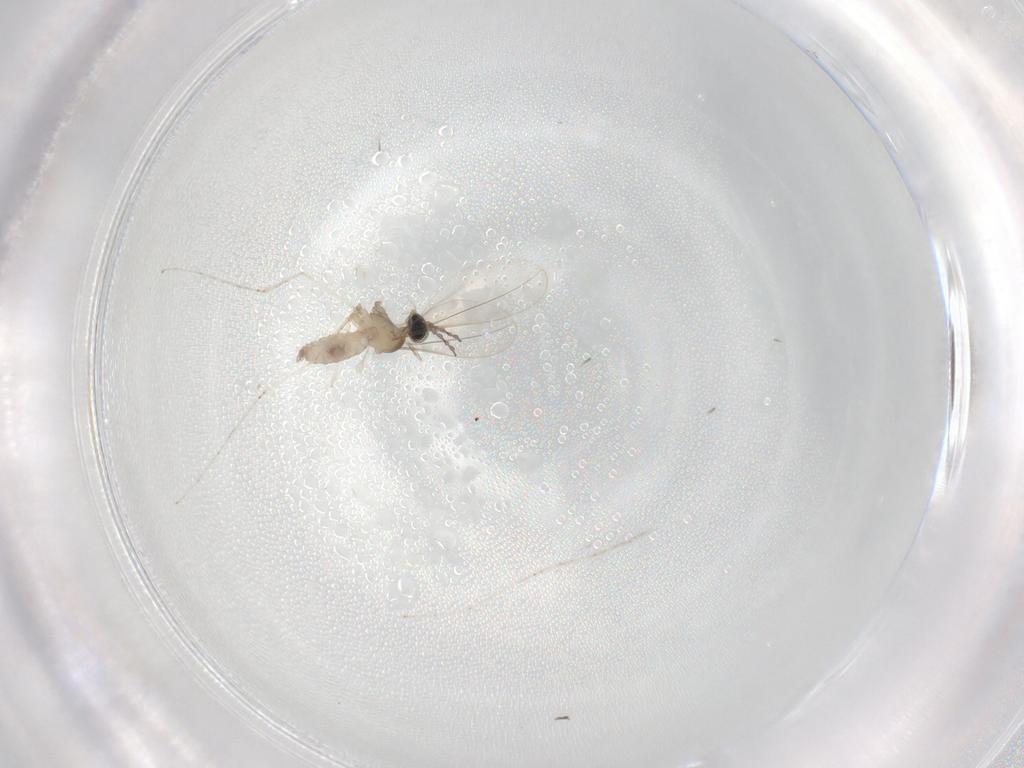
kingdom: Animalia
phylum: Arthropoda
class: Insecta
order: Diptera
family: Cecidomyiidae
